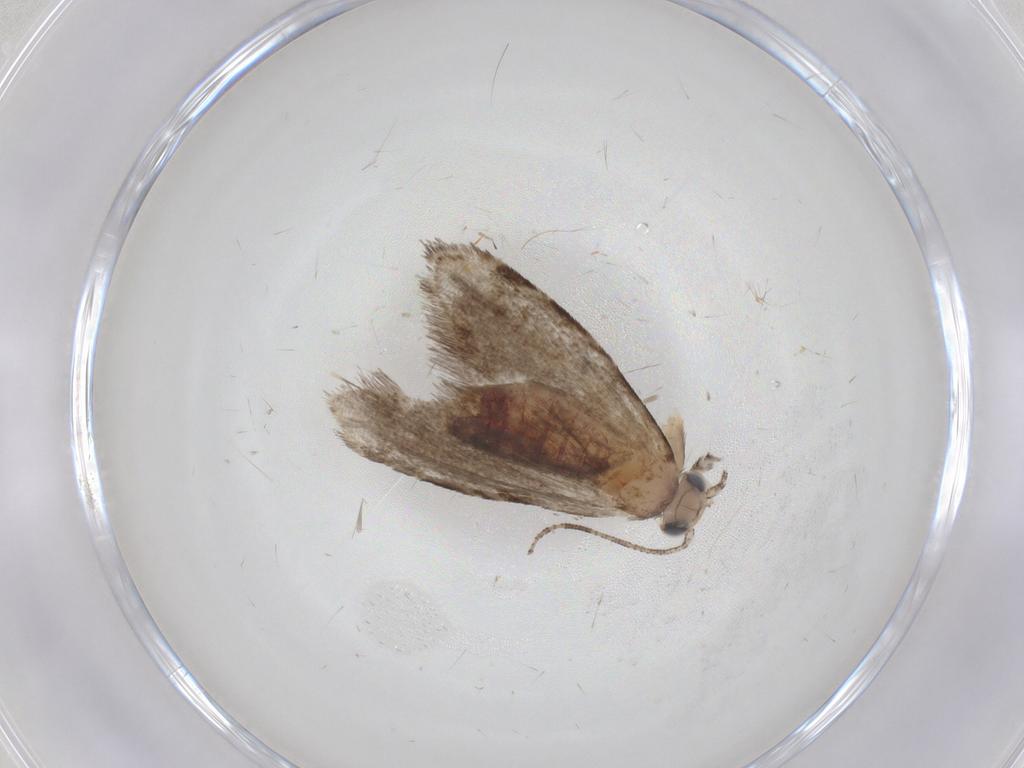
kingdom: Animalia
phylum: Arthropoda
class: Insecta
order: Lepidoptera
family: Tineidae
